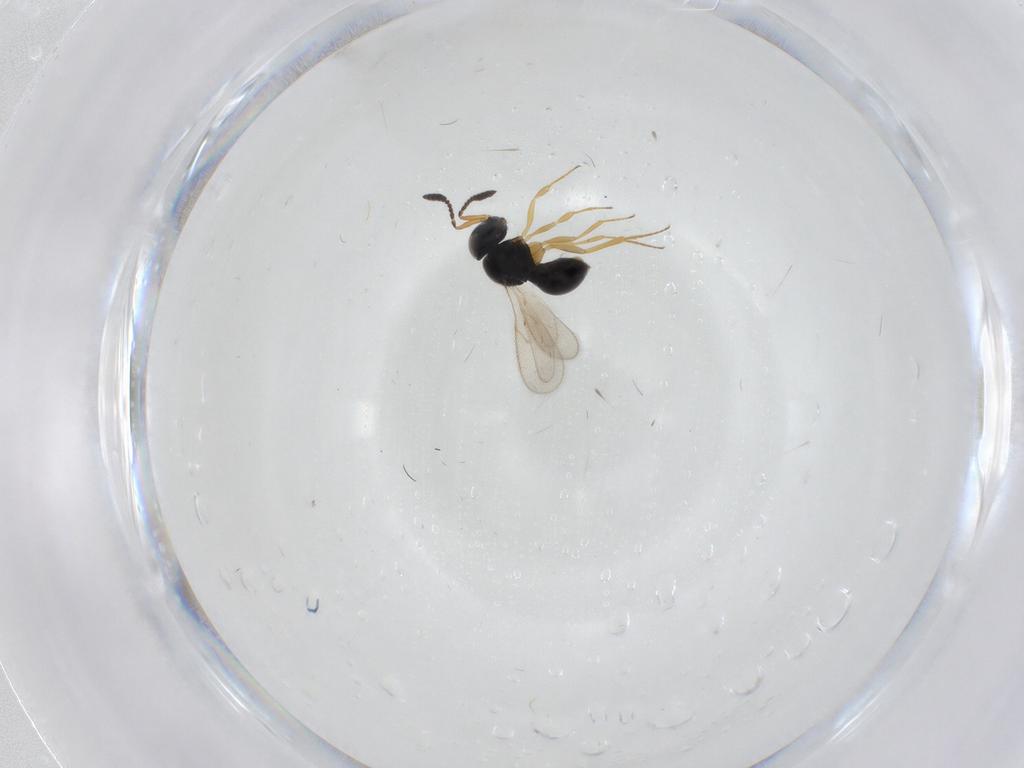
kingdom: Animalia
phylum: Arthropoda
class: Insecta
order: Hymenoptera
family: Scelionidae
